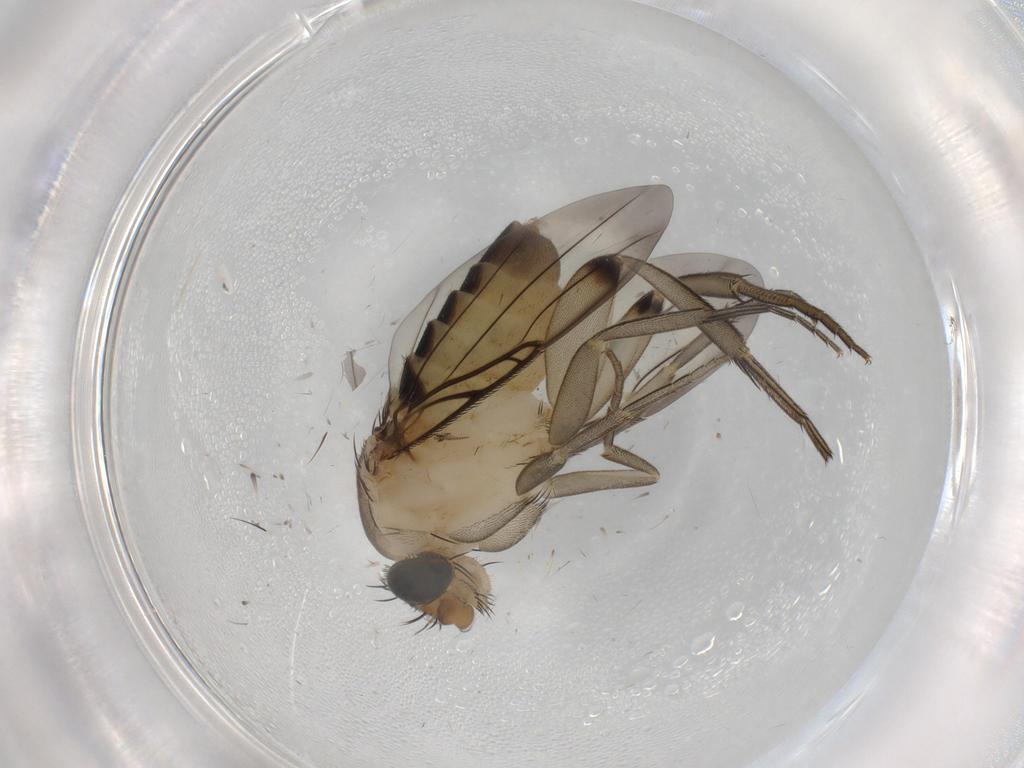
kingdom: Animalia
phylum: Arthropoda
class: Insecta
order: Diptera
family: Phoridae
